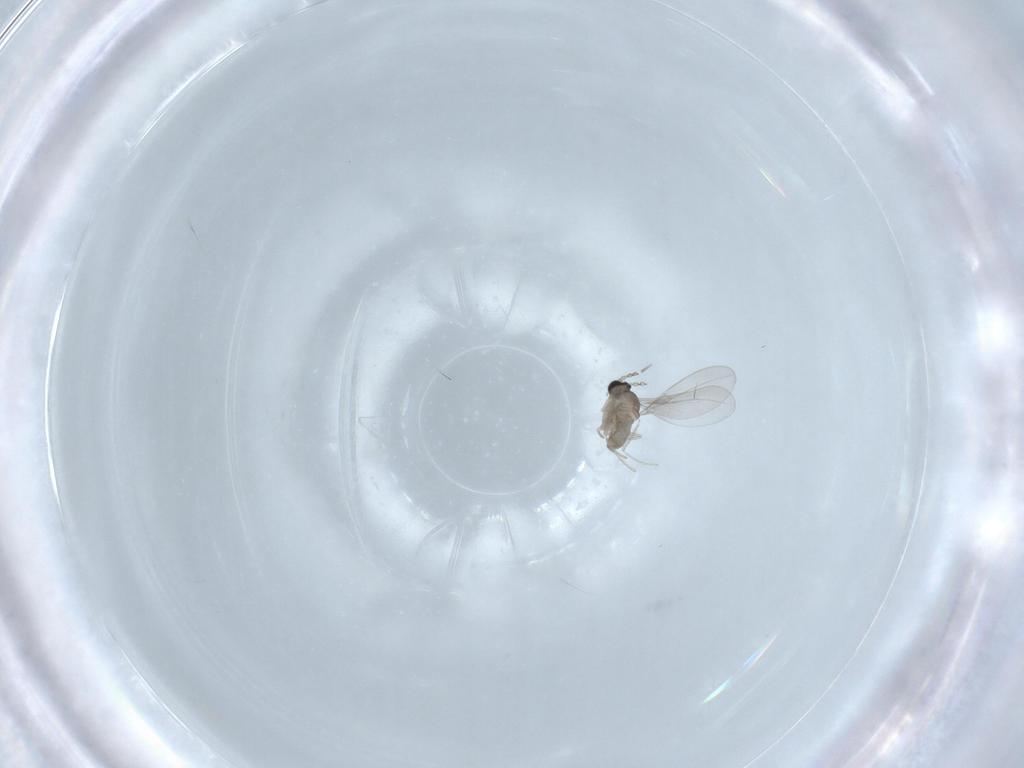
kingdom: Animalia
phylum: Arthropoda
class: Insecta
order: Diptera
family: Cecidomyiidae
